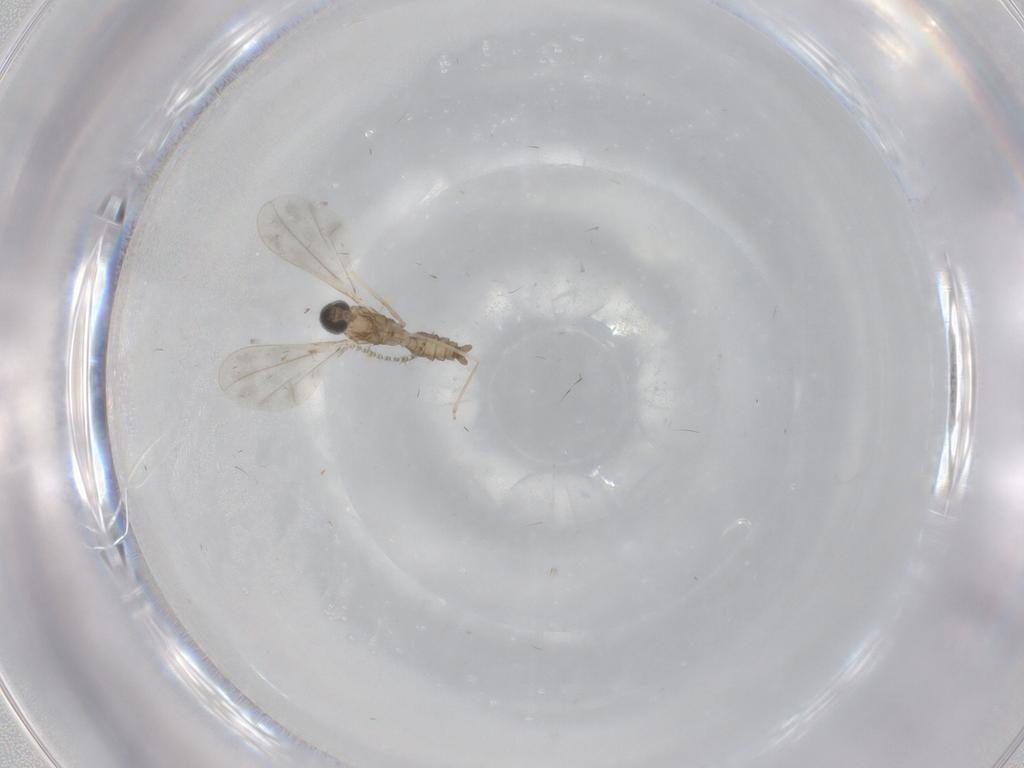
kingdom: Animalia
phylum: Arthropoda
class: Insecta
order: Diptera
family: Cecidomyiidae
